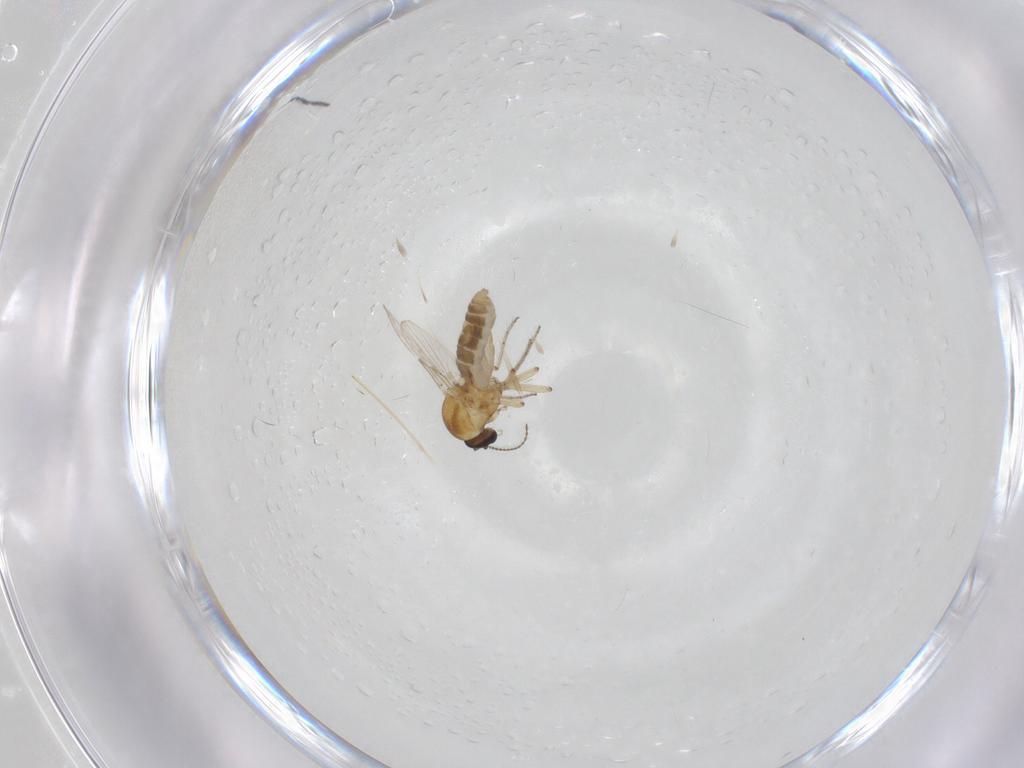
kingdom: Animalia
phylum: Arthropoda
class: Insecta
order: Diptera
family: Ceratopogonidae
